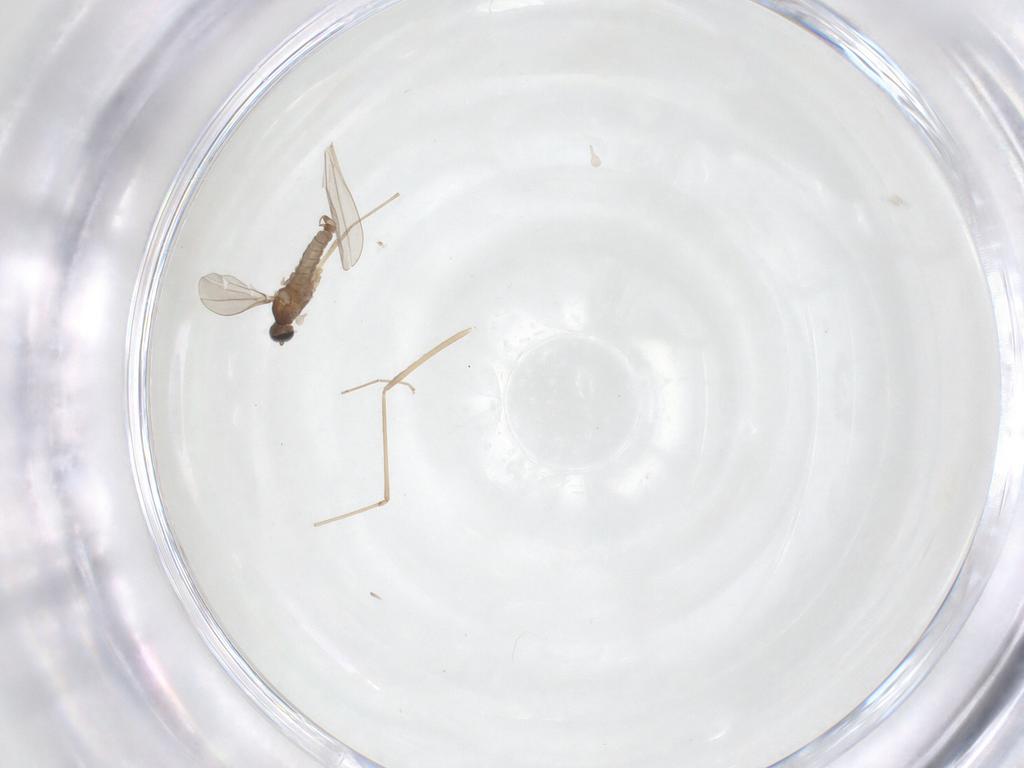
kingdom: Animalia
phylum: Arthropoda
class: Insecta
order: Diptera
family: Cecidomyiidae
